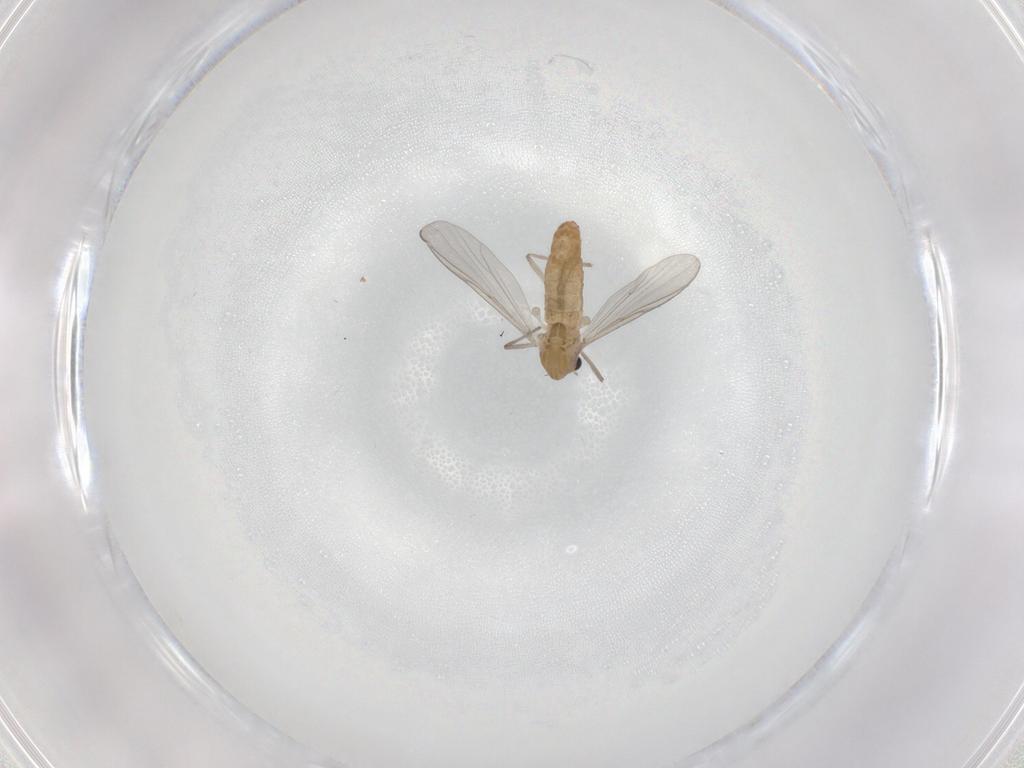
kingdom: Animalia
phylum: Arthropoda
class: Insecta
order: Diptera
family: Chironomidae
